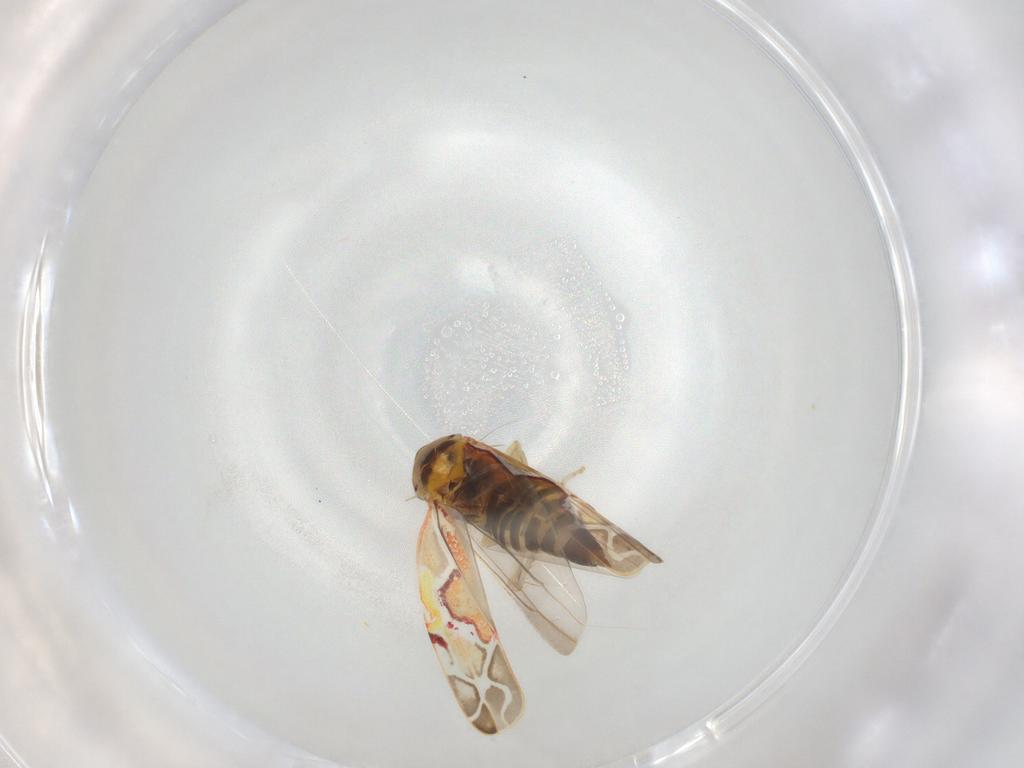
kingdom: Animalia
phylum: Arthropoda
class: Insecta
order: Hemiptera
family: Cicadellidae
